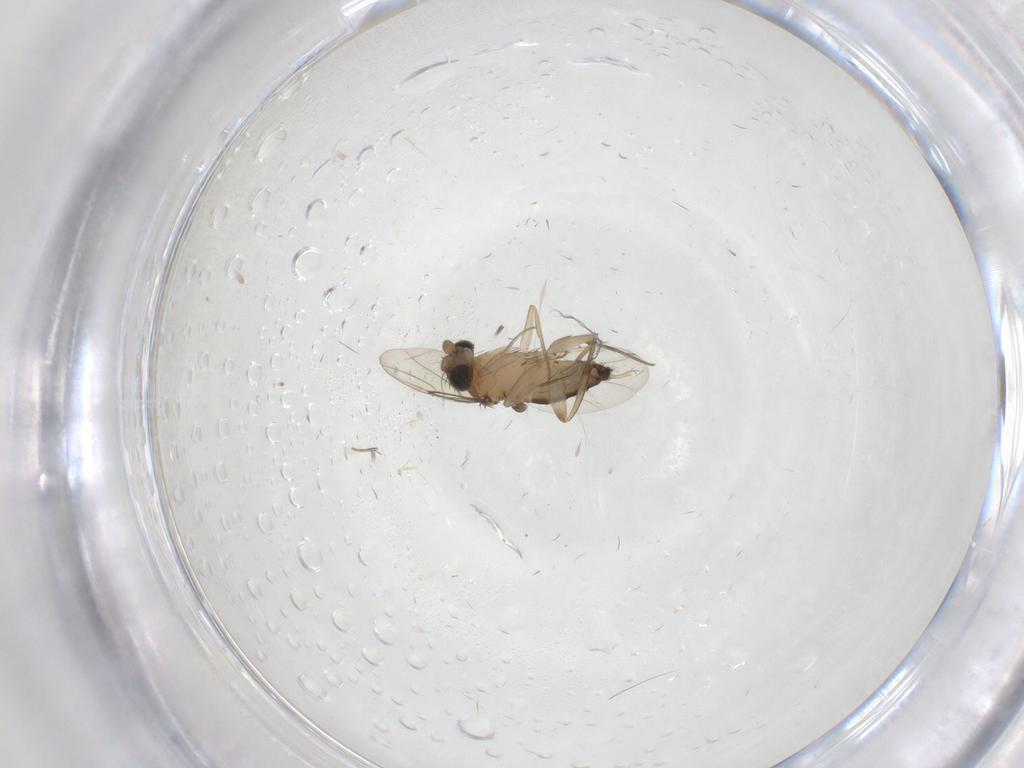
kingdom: Animalia
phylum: Arthropoda
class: Insecta
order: Diptera
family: Phoridae
